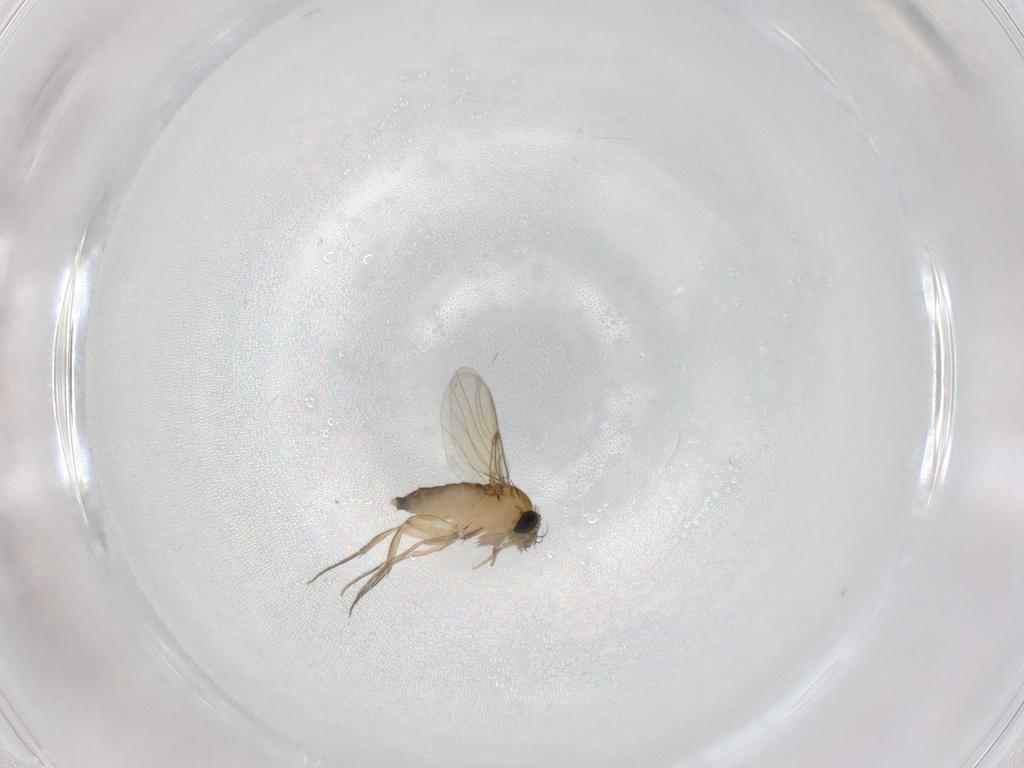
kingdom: Animalia
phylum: Arthropoda
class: Insecta
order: Diptera
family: Phoridae
